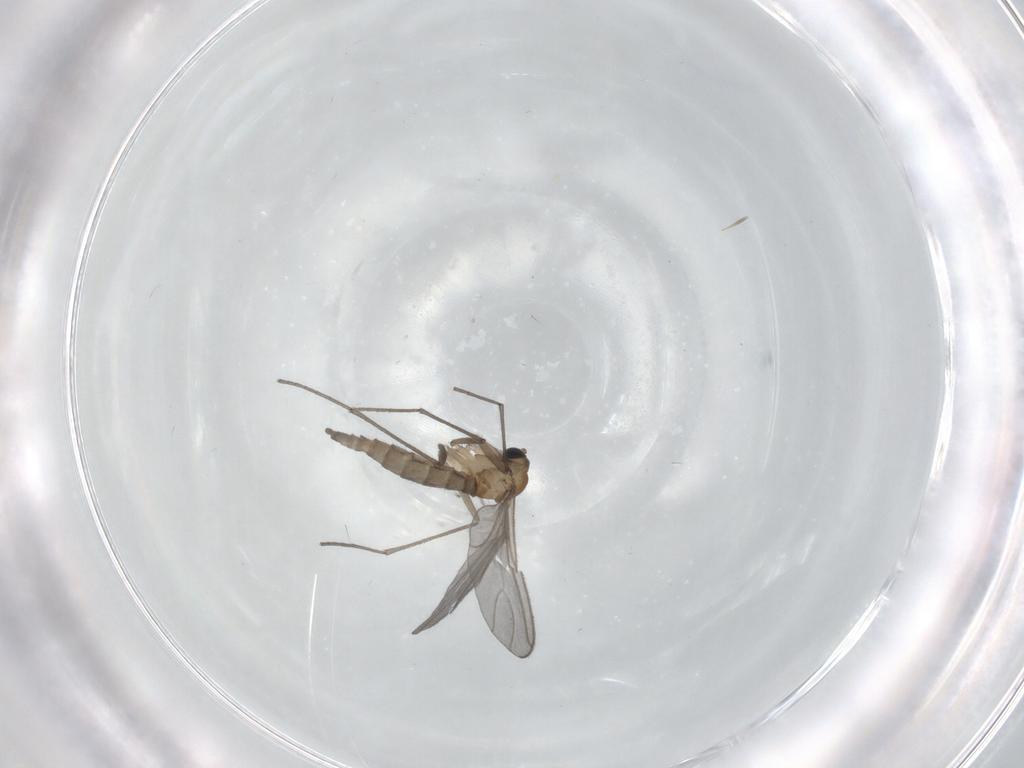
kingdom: Animalia
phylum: Arthropoda
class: Insecta
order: Diptera
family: Sciaridae
